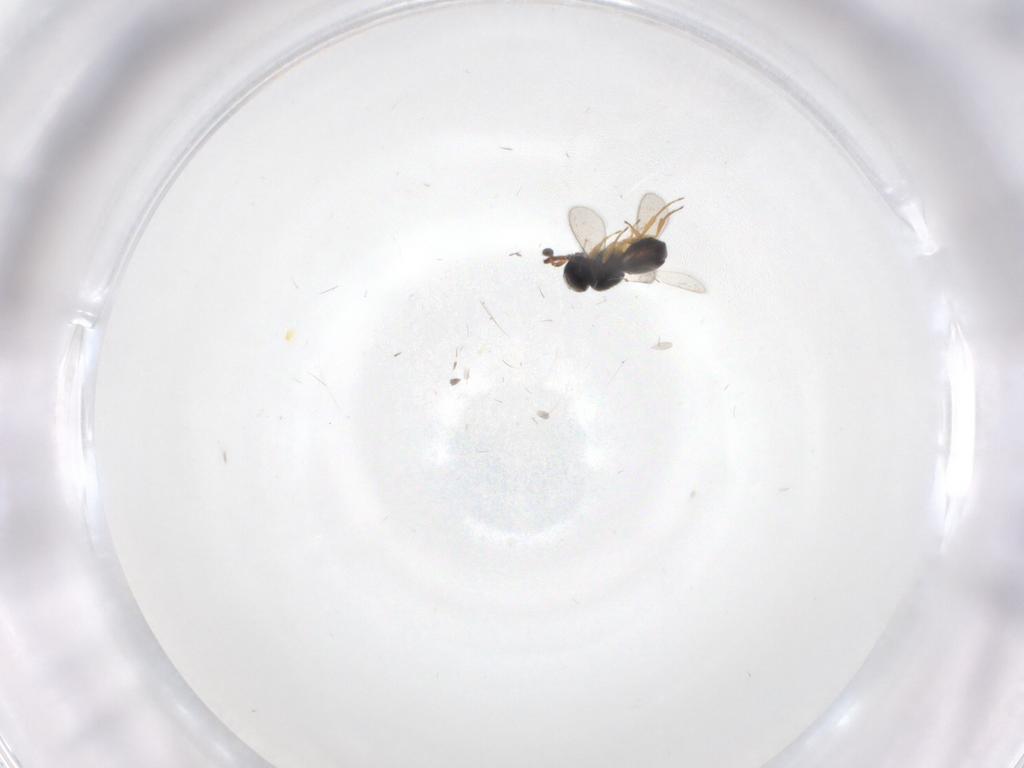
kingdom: Animalia
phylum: Arthropoda
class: Insecta
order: Hymenoptera
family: Scelionidae
